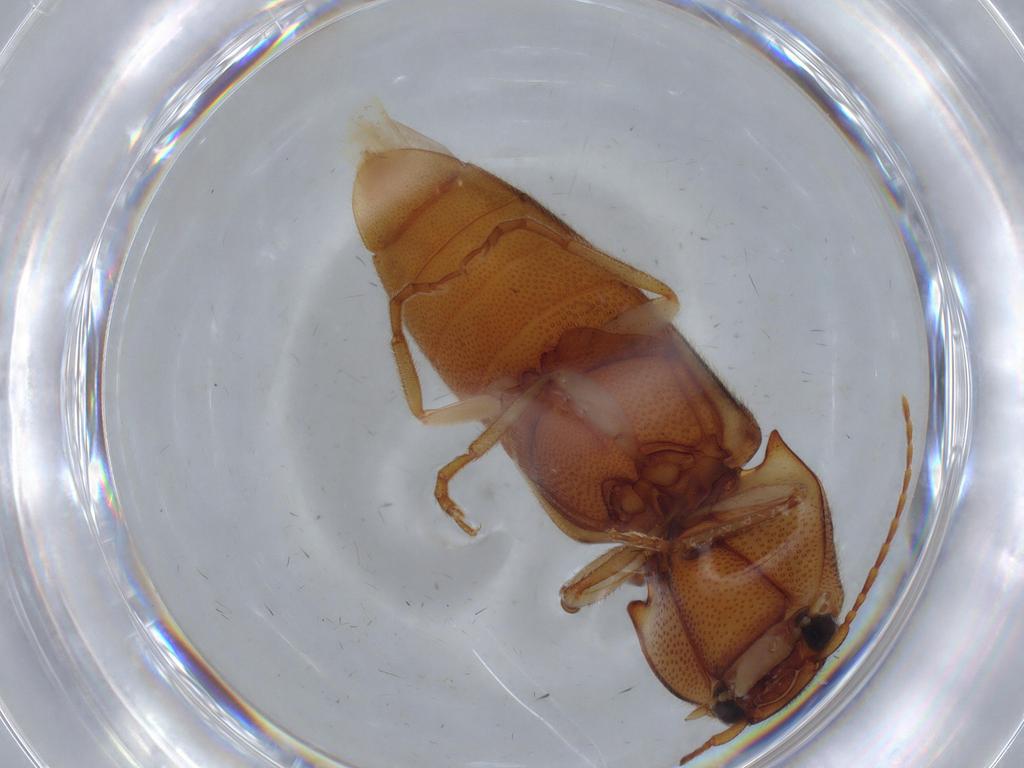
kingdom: Animalia
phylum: Arthropoda
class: Insecta
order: Coleoptera
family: Elateridae
